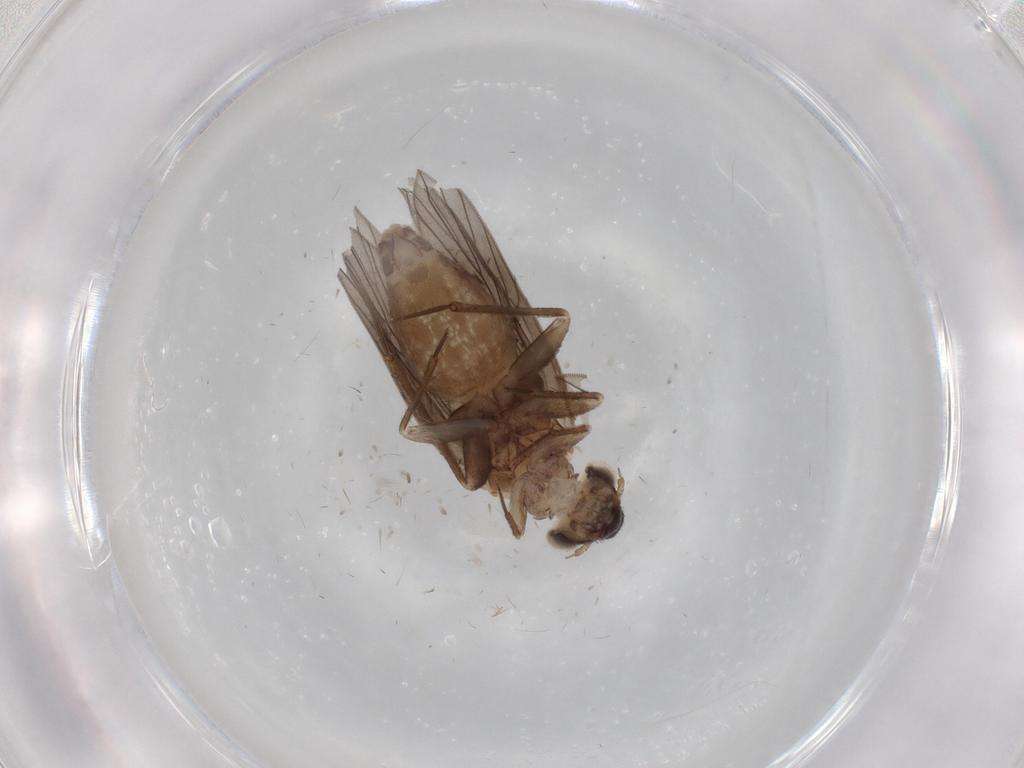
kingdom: Animalia
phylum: Arthropoda
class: Insecta
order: Psocodea
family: Lepidopsocidae
